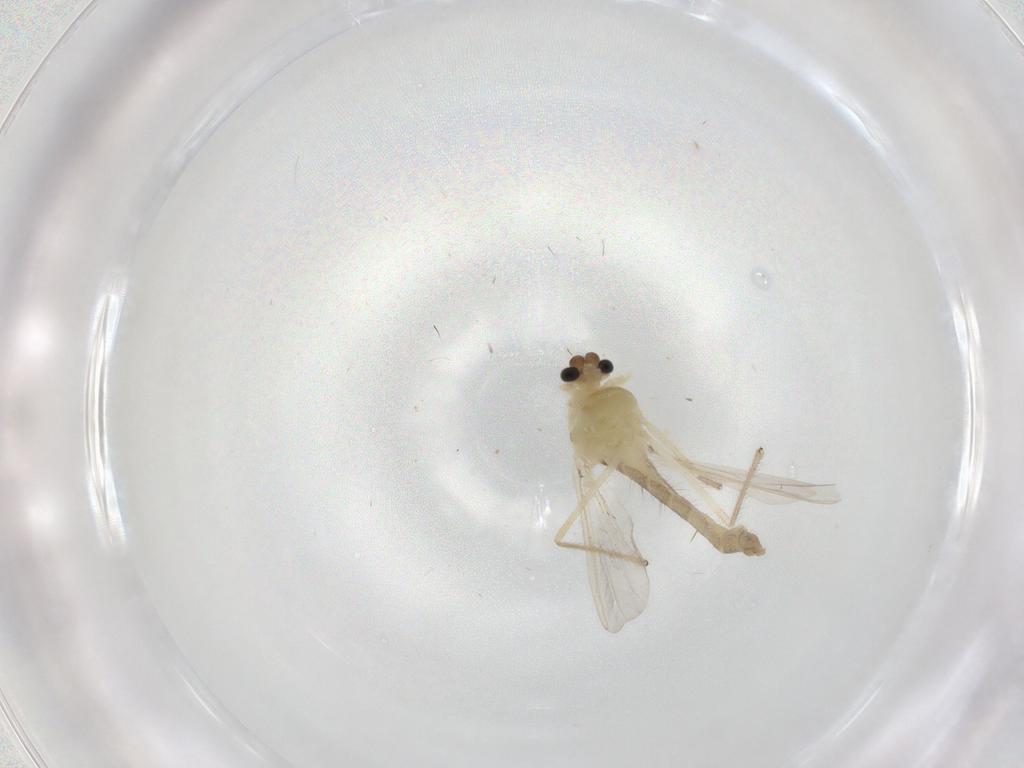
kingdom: Animalia
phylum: Arthropoda
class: Insecta
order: Diptera
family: Chironomidae
